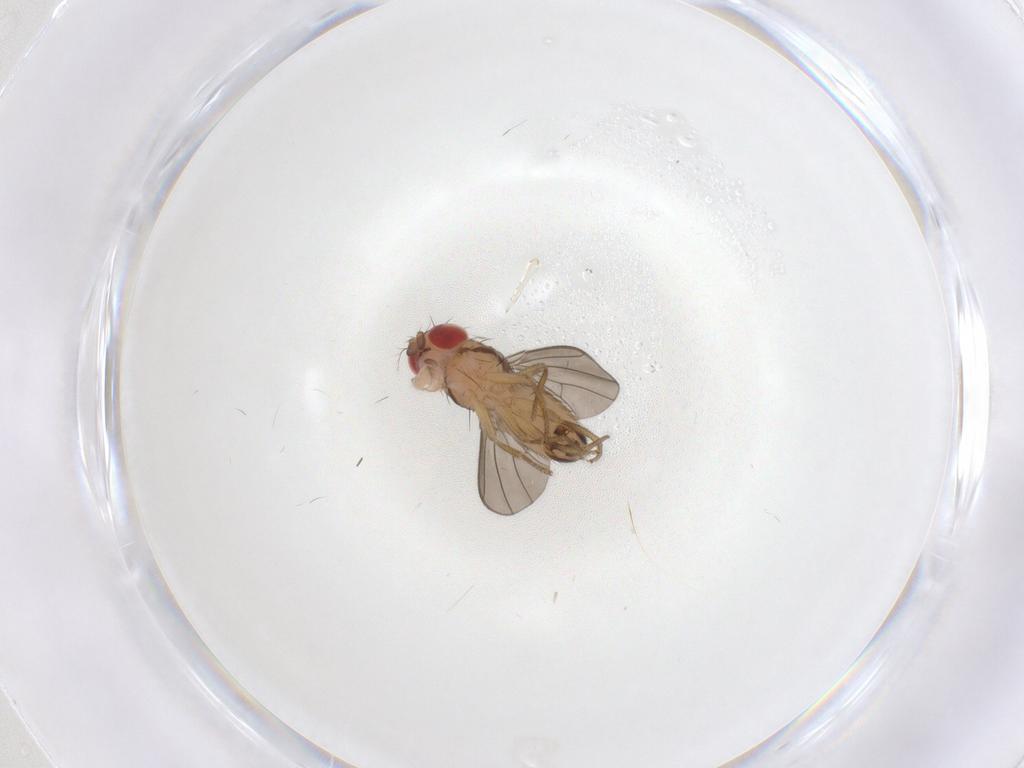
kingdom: Animalia
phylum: Arthropoda
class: Insecta
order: Diptera
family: Drosophilidae
